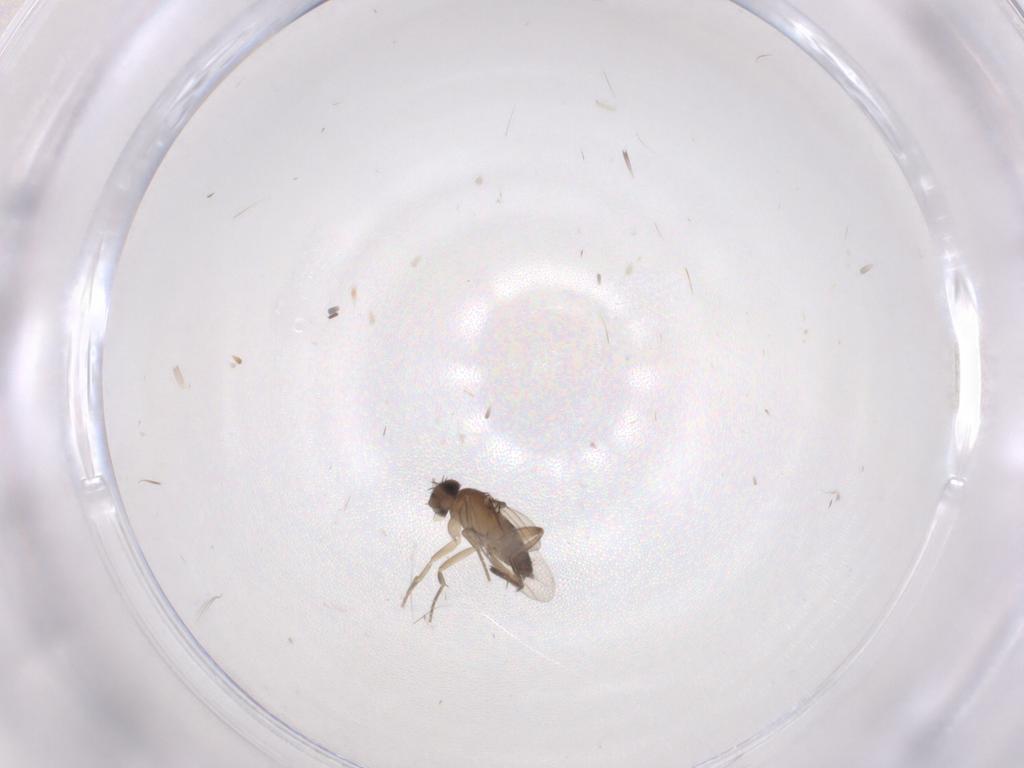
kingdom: Animalia
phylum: Arthropoda
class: Insecta
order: Diptera
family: Phoridae
